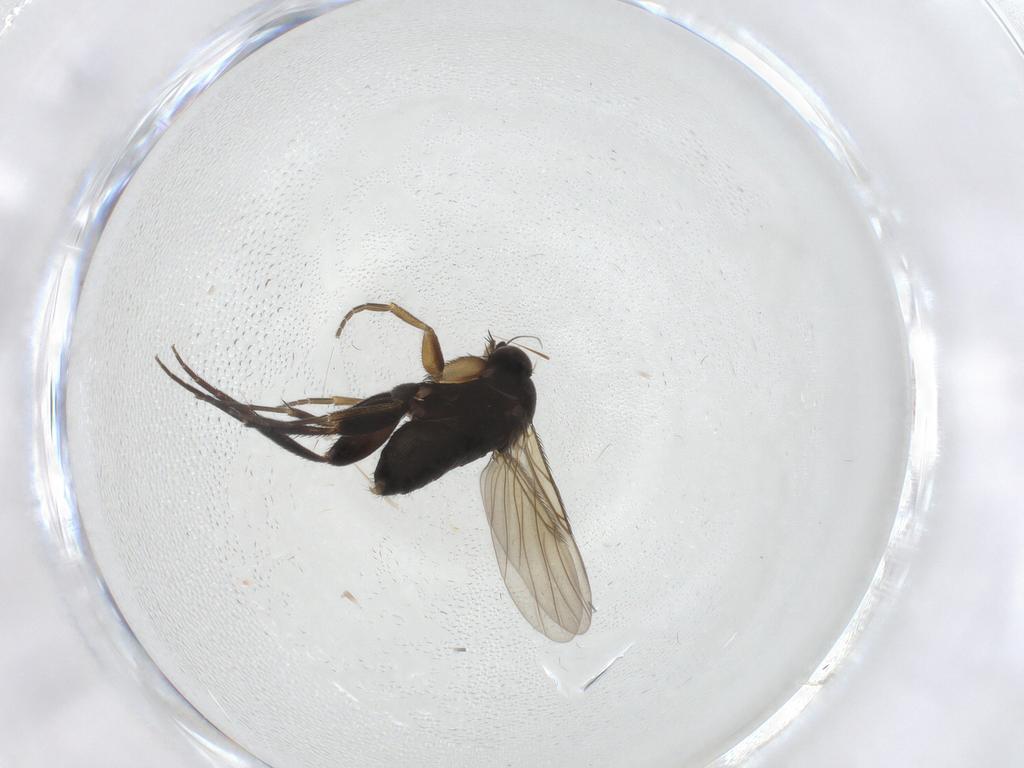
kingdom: Animalia
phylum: Arthropoda
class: Insecta
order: Diptera
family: Phoridae
